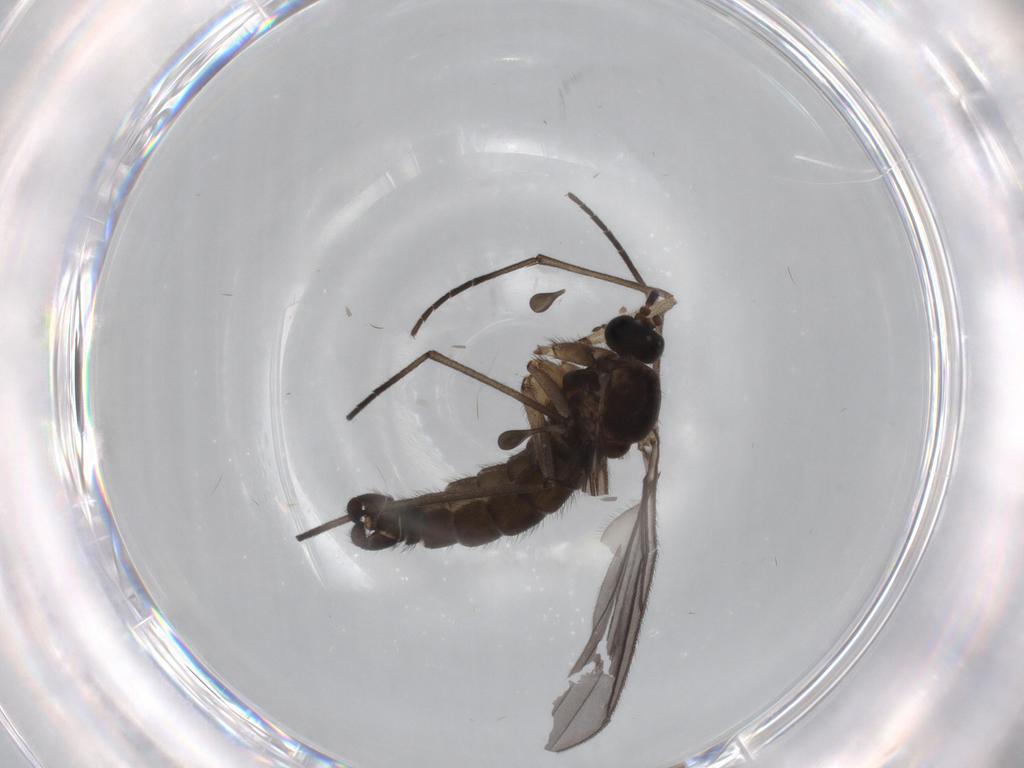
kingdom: Animalia
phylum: Arthropoda
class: Insecta
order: Diptera
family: Sciaridae
